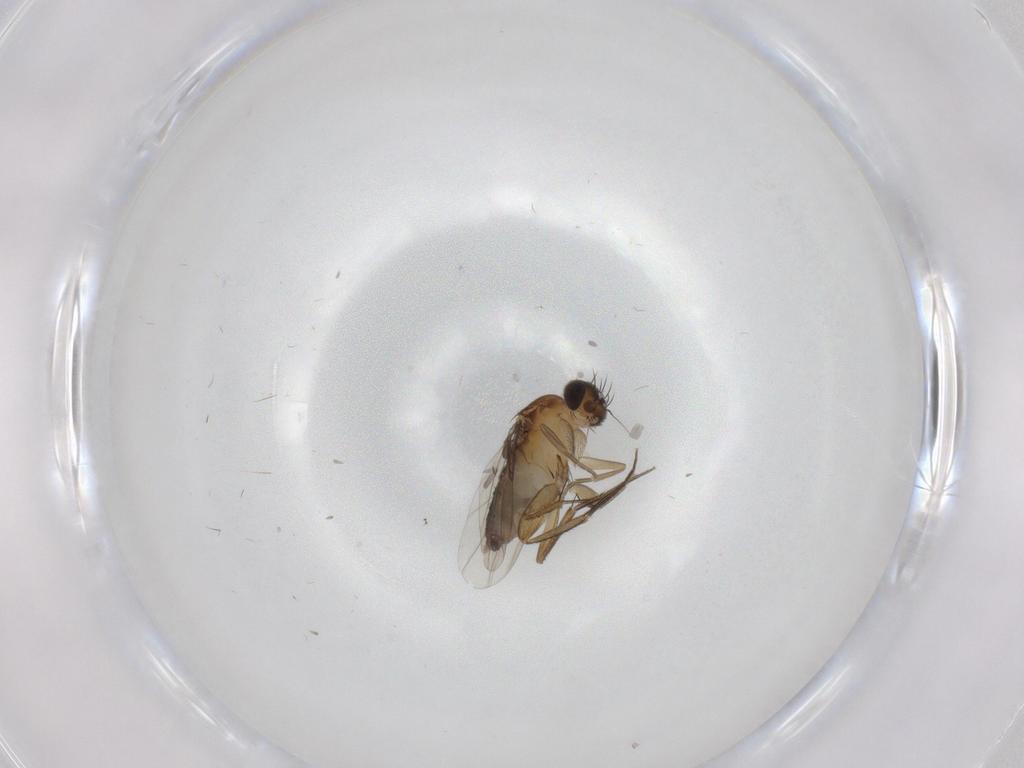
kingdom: Animalia
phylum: Arthropoda
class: Insecta
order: Diptera
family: Phoridae
